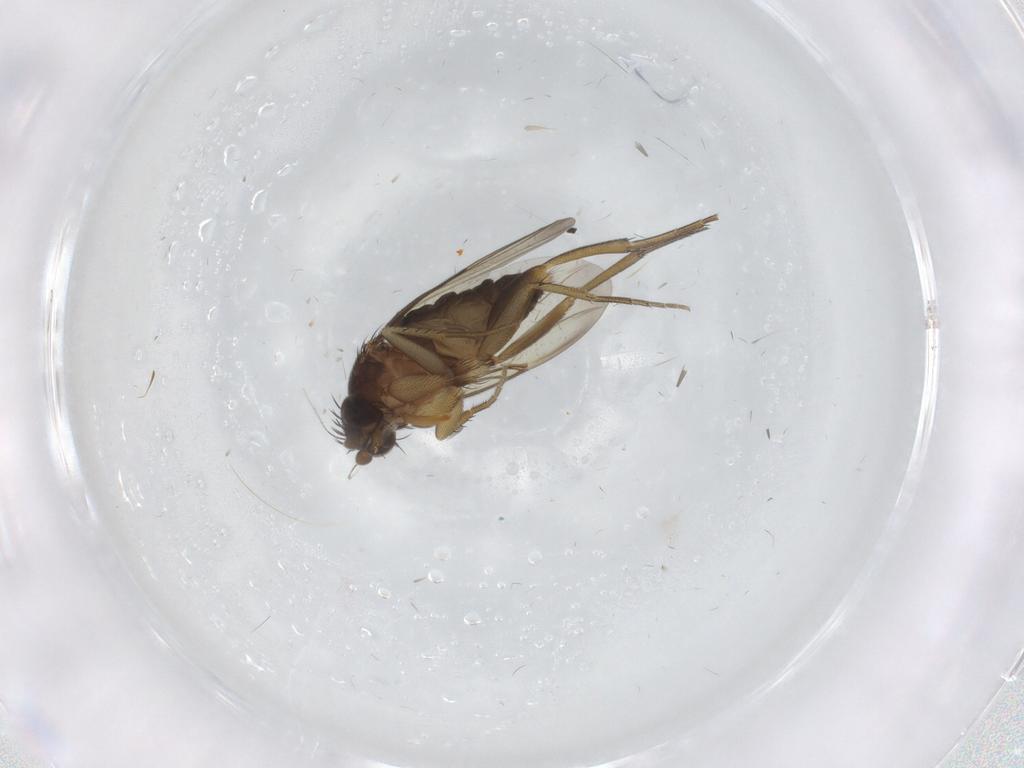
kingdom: Animalia
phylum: Arthropoda
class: Insecta
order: Diptera
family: Phoridae
